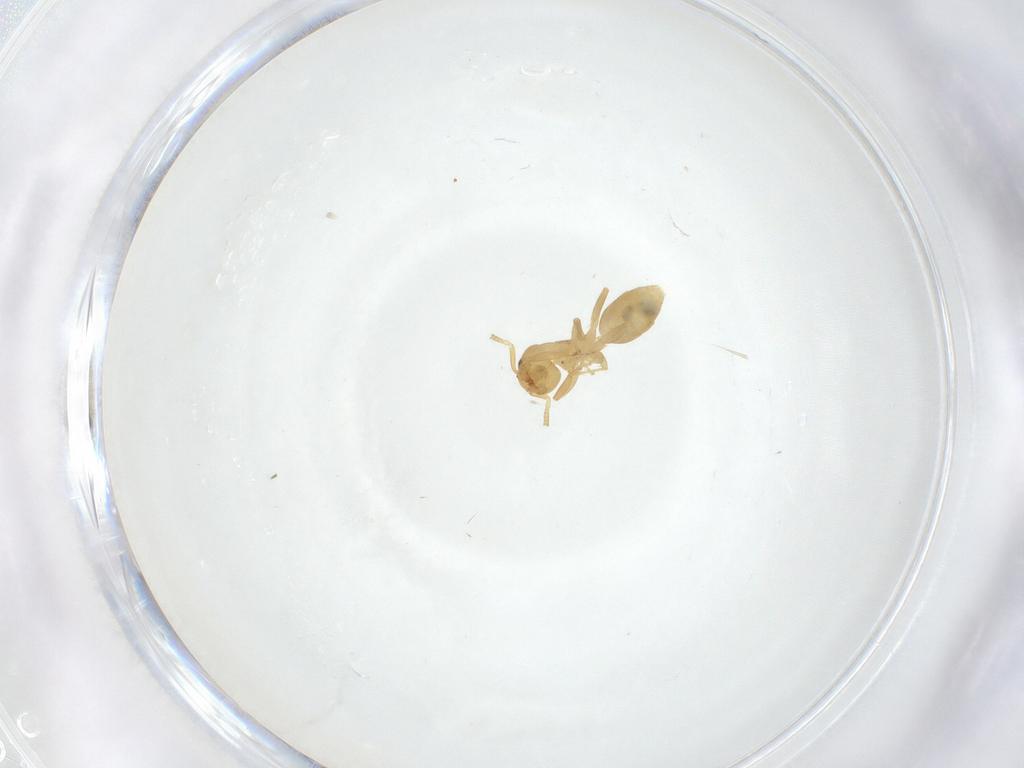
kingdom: Animalia
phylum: Arthropoda
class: Insecta
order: Hymenoptera
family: Formicidae
